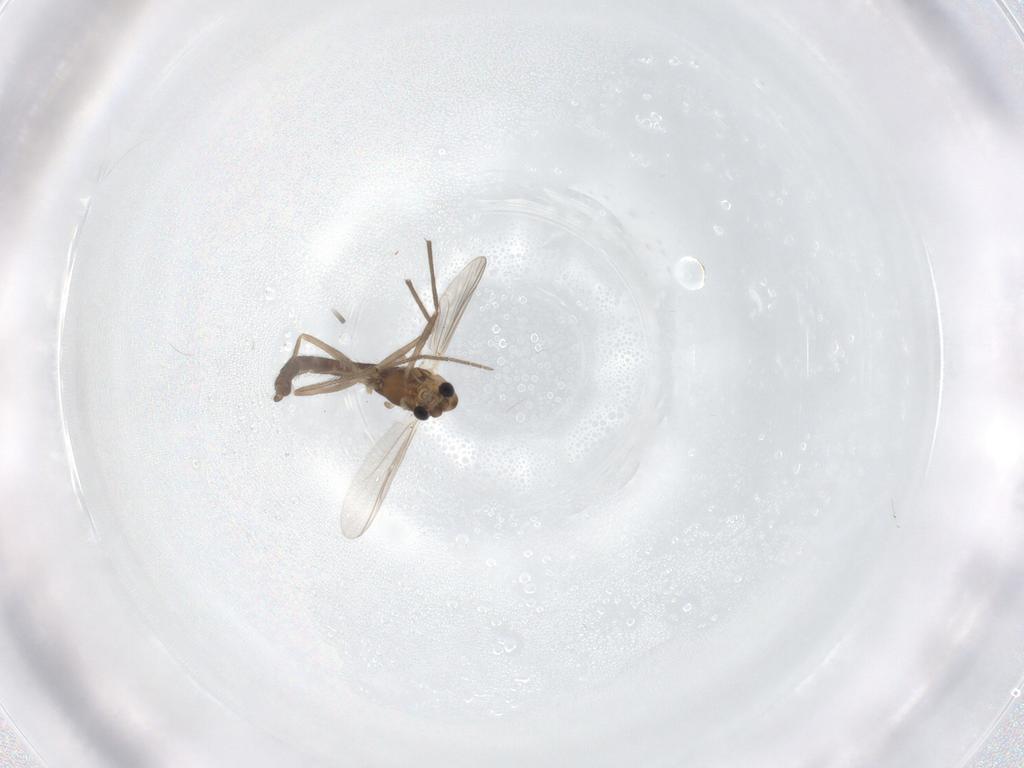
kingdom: Animalia
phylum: Arthropoda
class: Insecta
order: Diptera
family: Chironomidae
